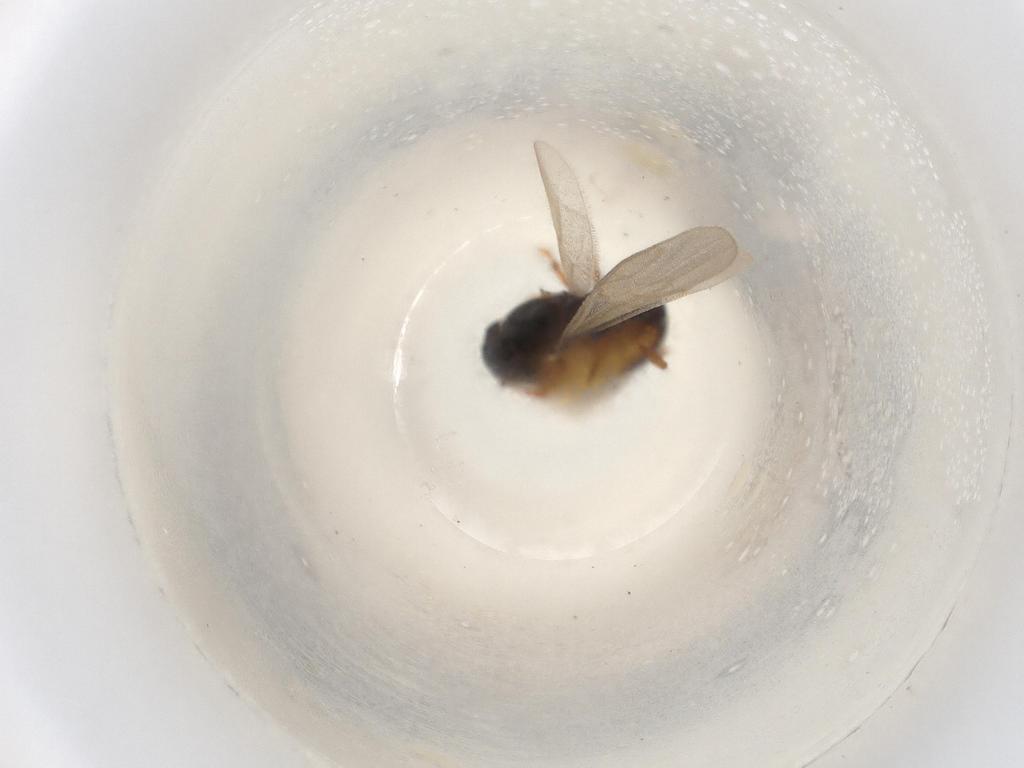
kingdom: Animalia
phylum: Arthropoda
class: Insecta
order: Diptera
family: Dolichopodidae
